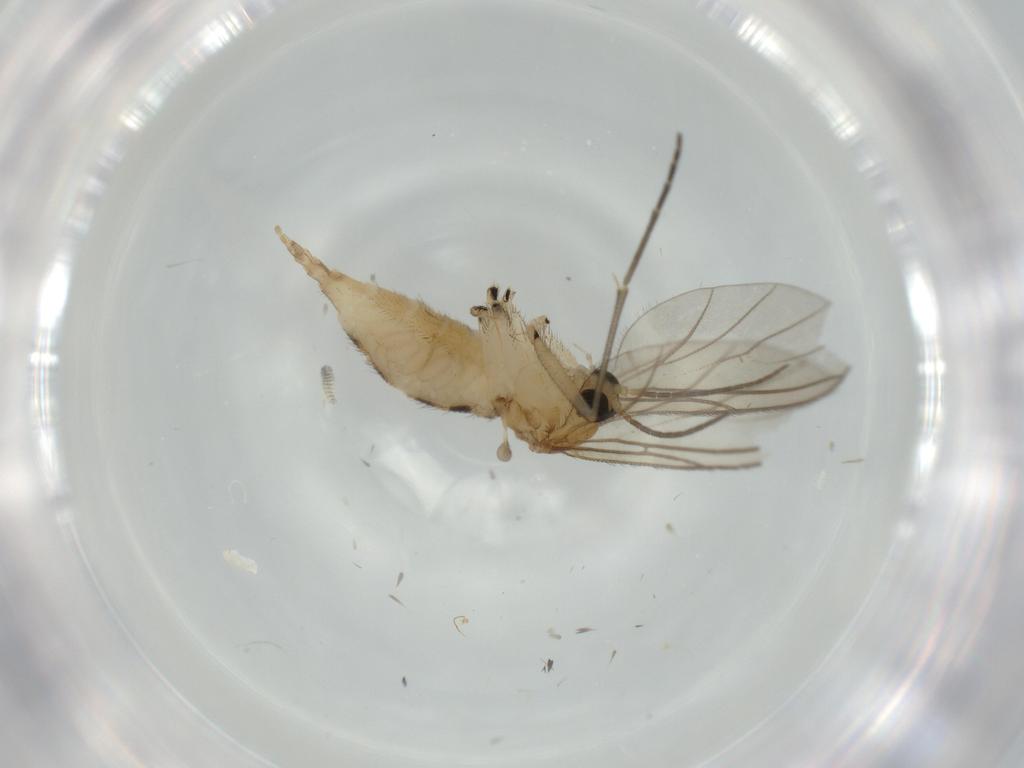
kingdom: Animalia
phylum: Arthropoda
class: Insecta
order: Diptera
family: Sciaridae
